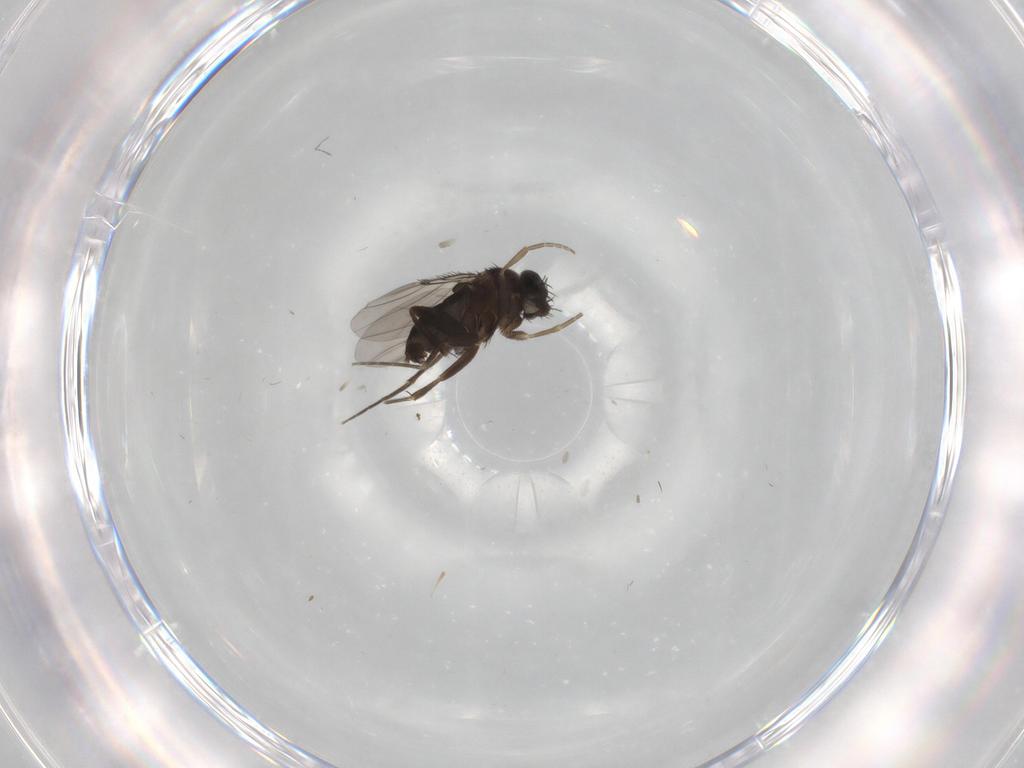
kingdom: Animalia
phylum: Arthropoda
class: Insecta
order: Diptera
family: Phoridae
